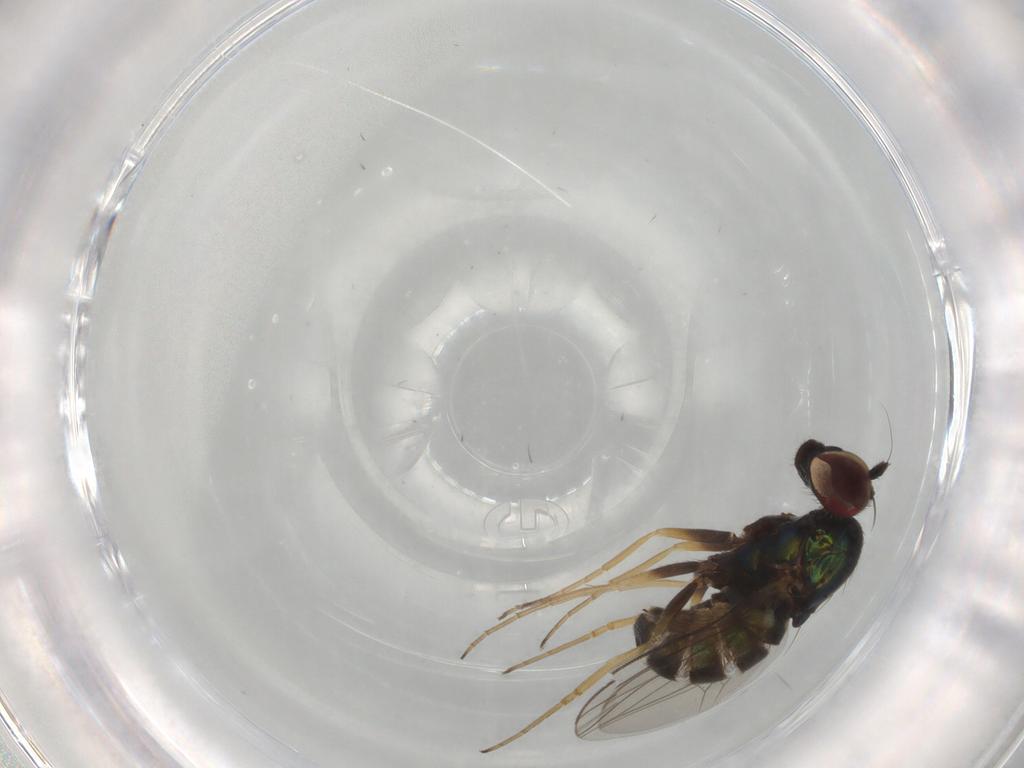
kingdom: Animalia
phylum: Arthropoda
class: Insecta
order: Diptera
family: Dolichopodidae
